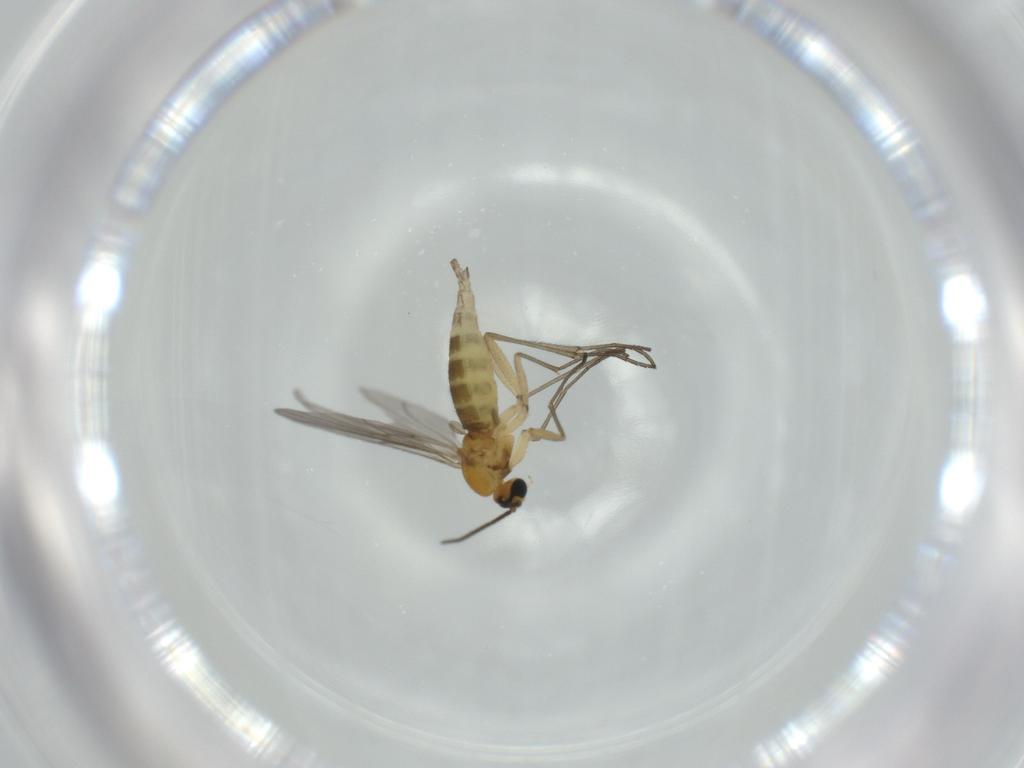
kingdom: Animalia
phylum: Arthropoda
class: Insecta
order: Diptera
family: Sciaridae
